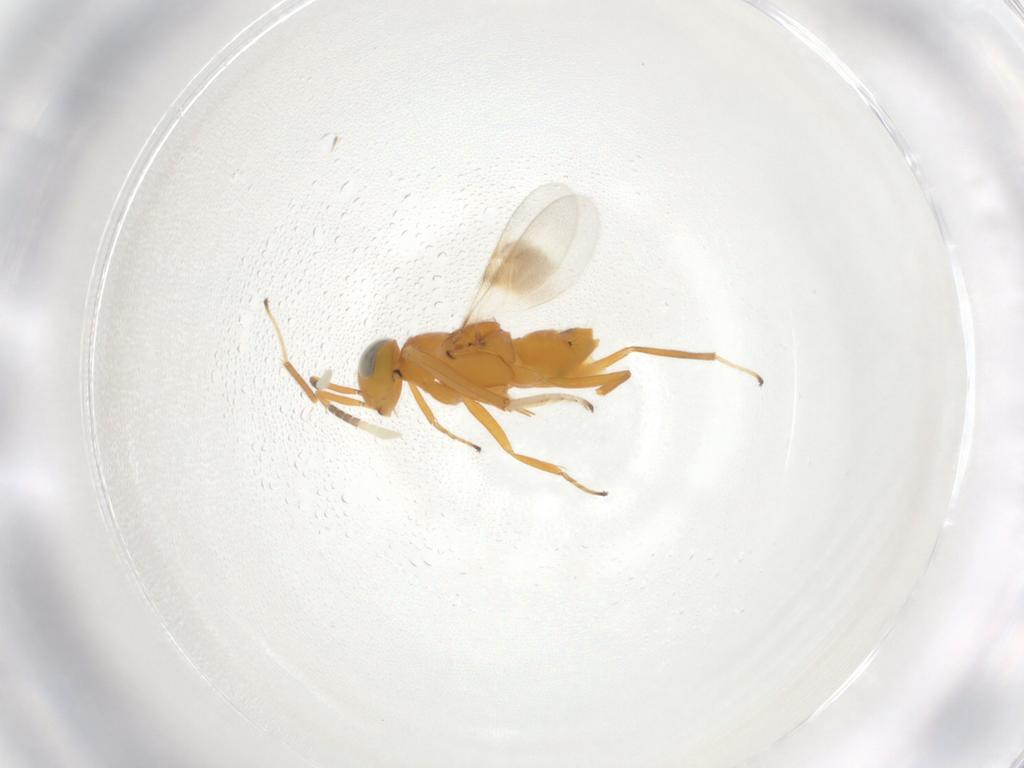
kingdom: Animalia
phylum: Arthropoda
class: Insecta
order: Hymenoptera
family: Encyrtidae
